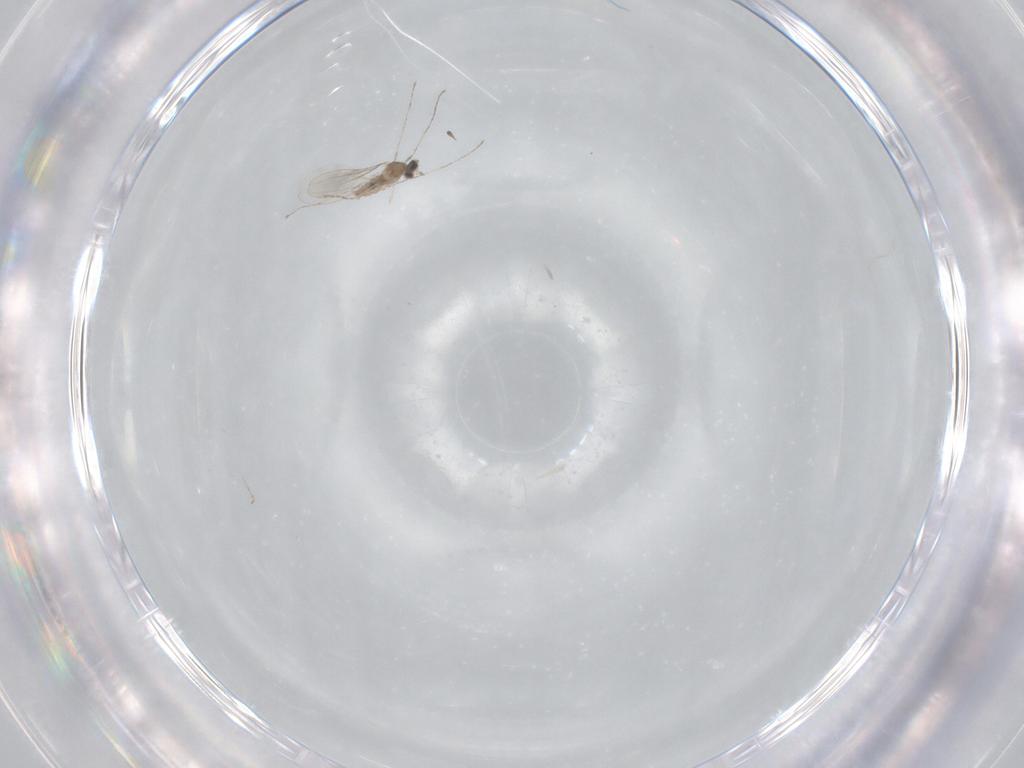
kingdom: Animalia
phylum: Arthropoda
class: Insecta
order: Diptera
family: Cecidomyiidae
